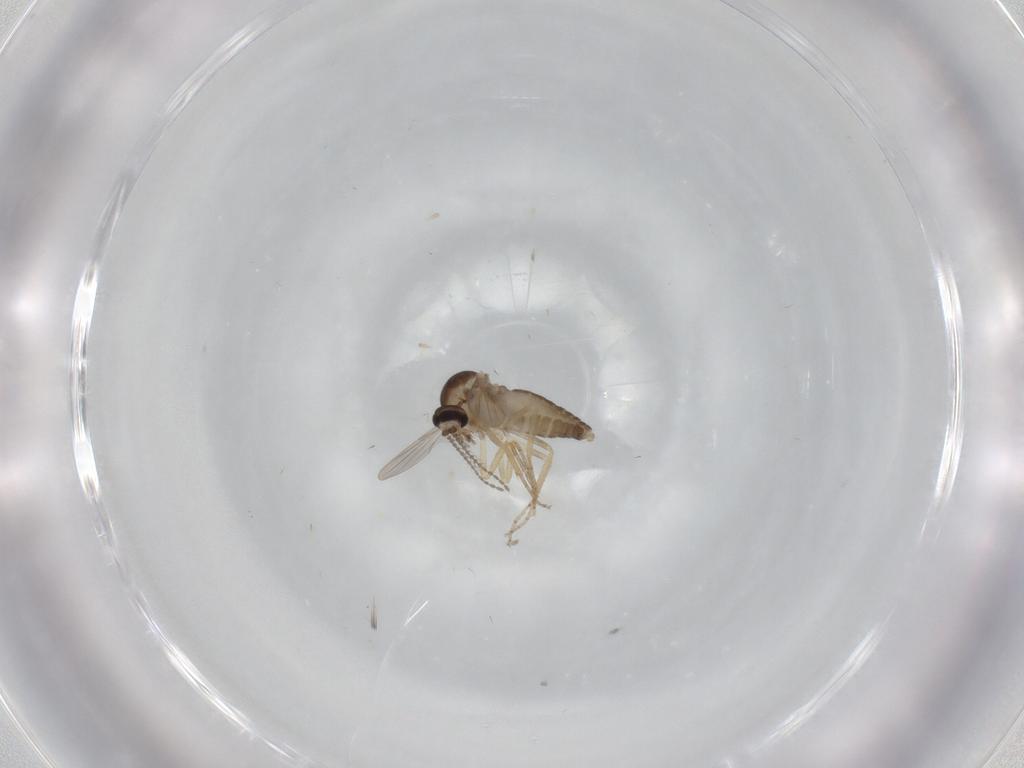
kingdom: Animalia
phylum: Arthropoda
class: Insecta
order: Diptera
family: Ceratopogonidae
